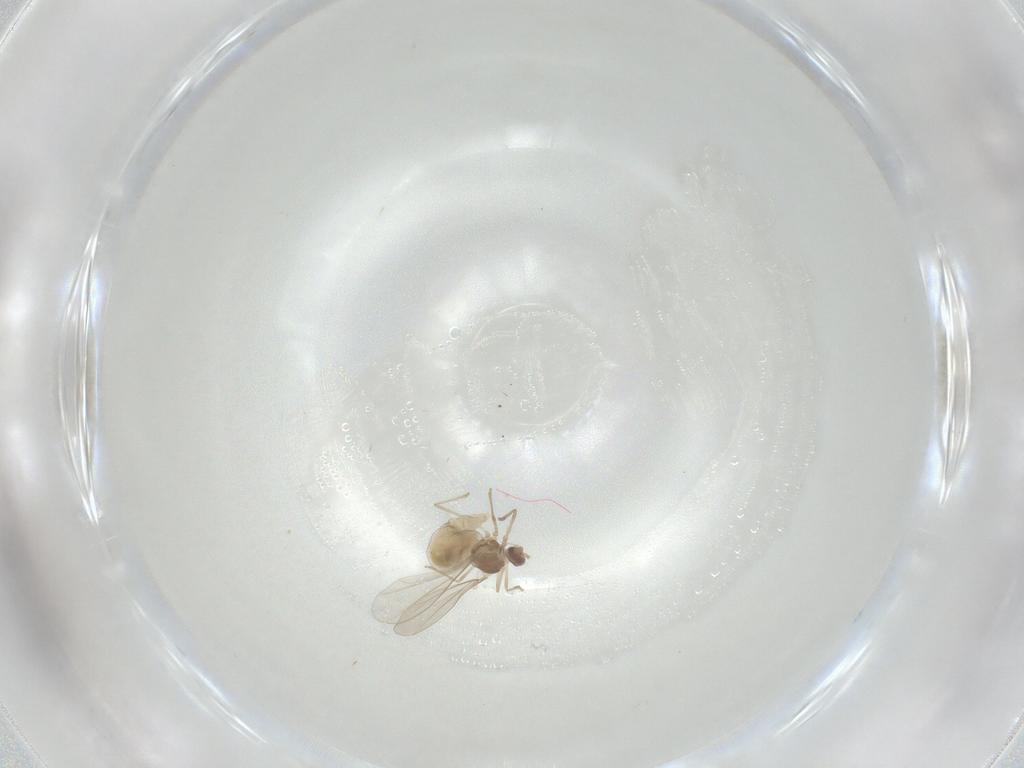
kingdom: Animalia
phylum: Arthropoda
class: Insecta
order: Diptera
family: Cecidomyiidae
